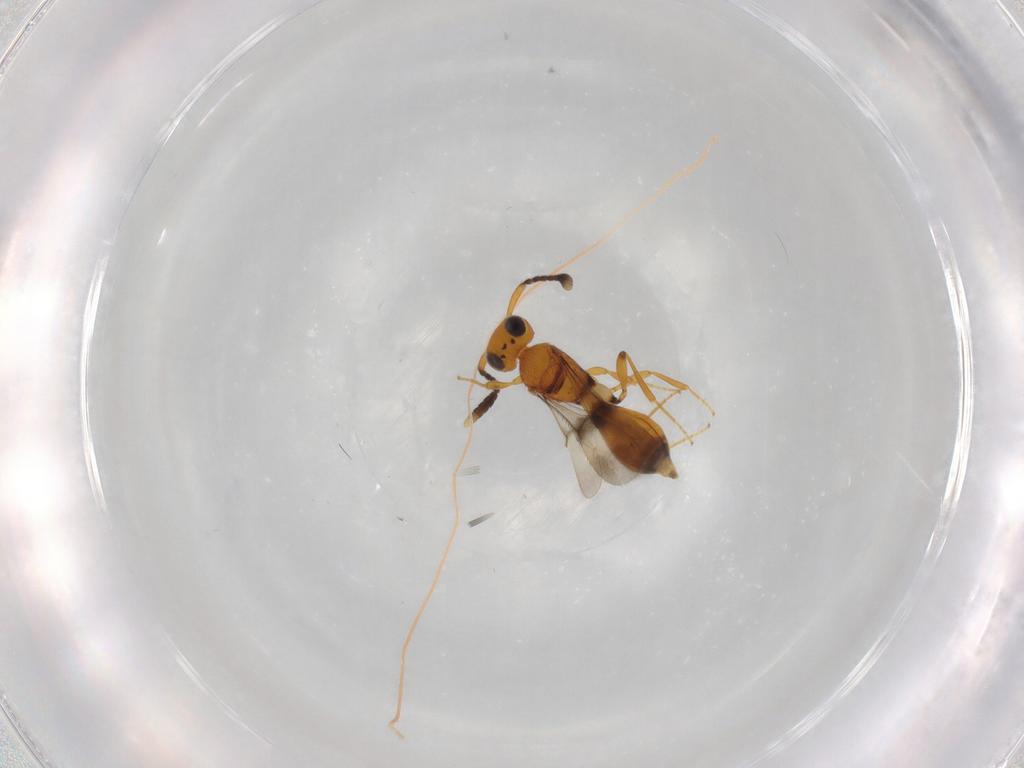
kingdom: Animalia
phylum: Arthropoda
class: Insecta
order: Hymenoptera
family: Scelionidae
